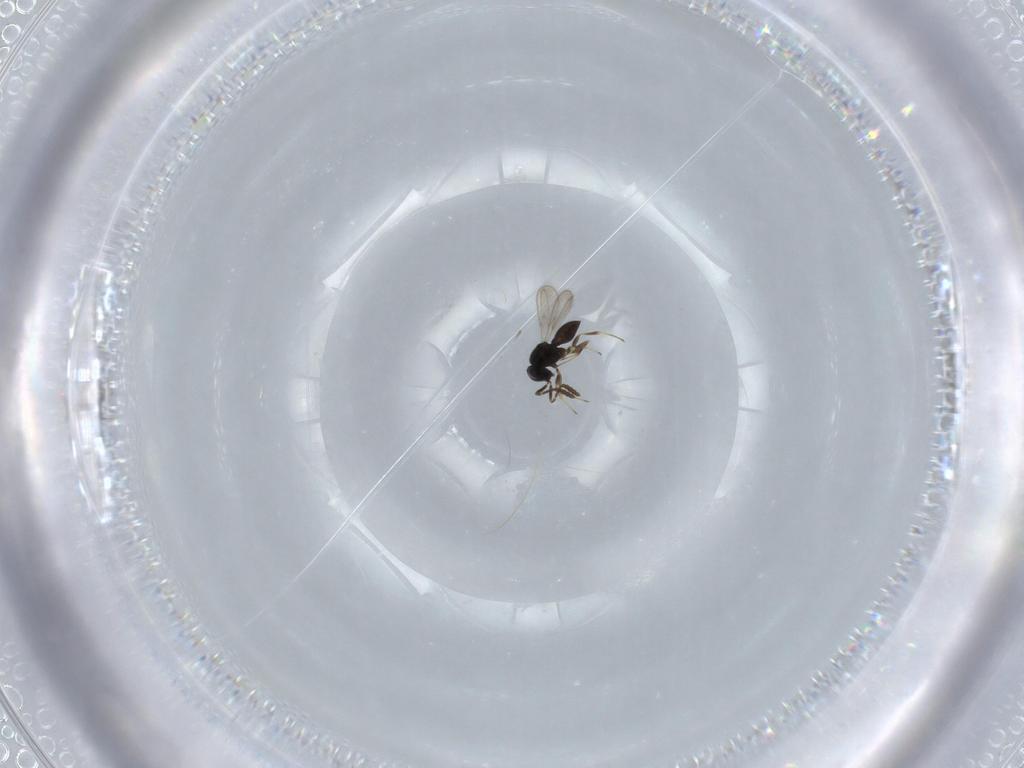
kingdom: Animalia
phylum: Arthropoda
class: Insecta
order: Hymenoptera
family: Scelionidae
